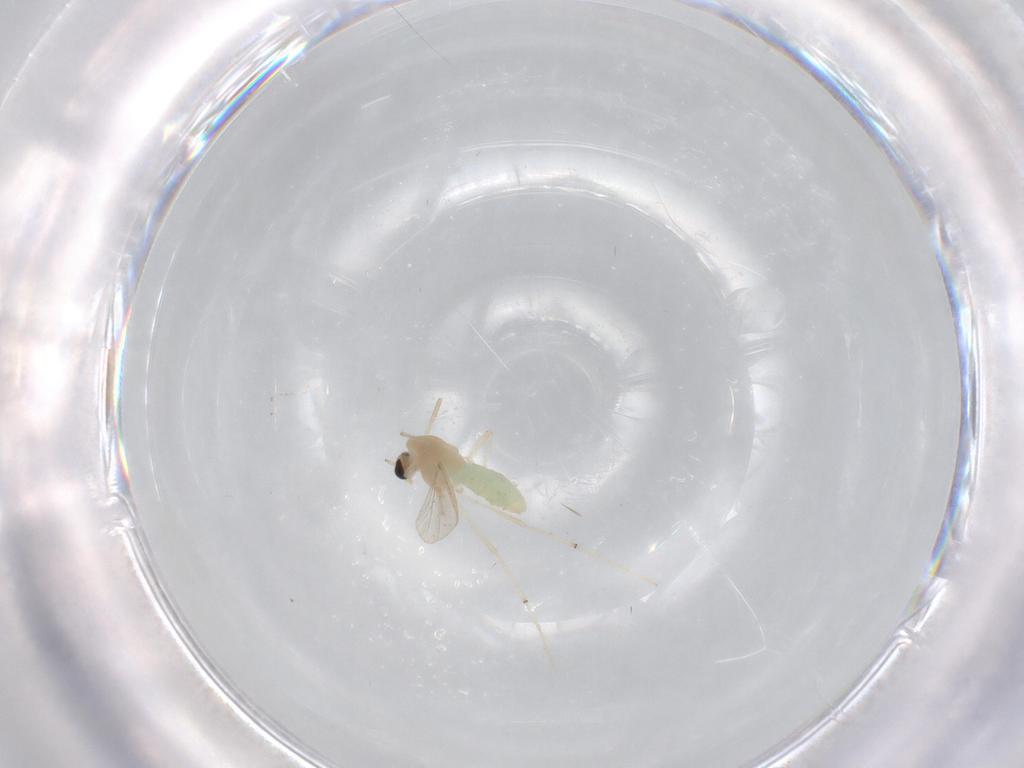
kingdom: Animalia
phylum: Arthropoda
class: Insecta
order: Diptera
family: Chironomidae
